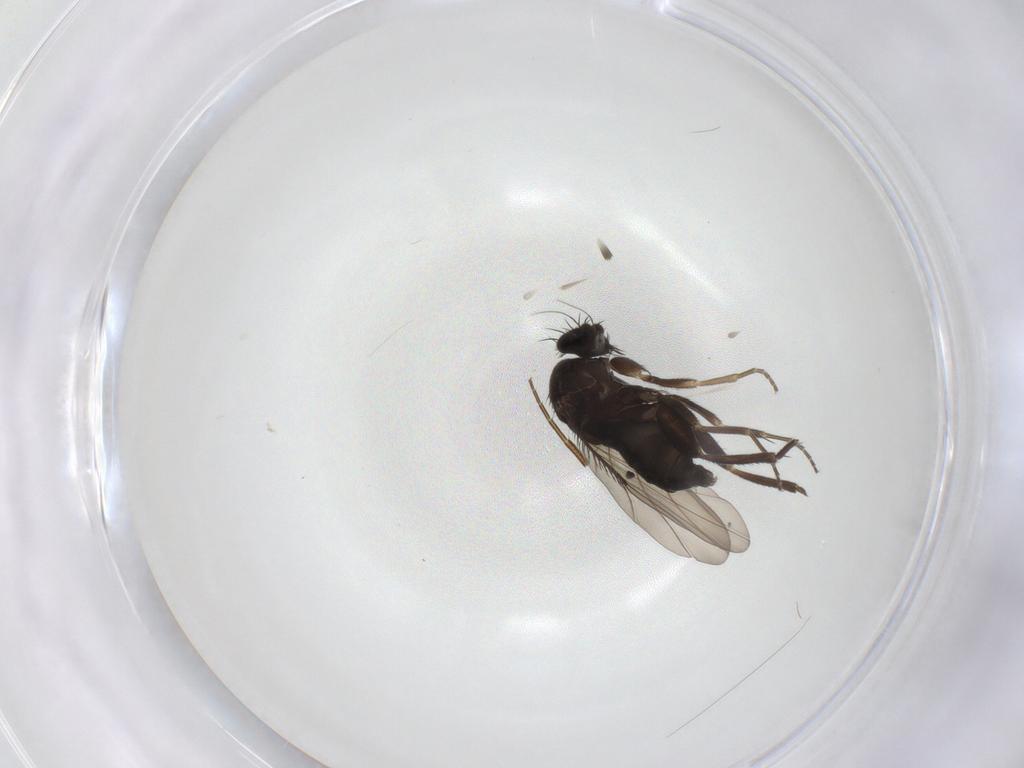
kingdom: Animalia
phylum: Arthropoda
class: Insecta
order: Diptera
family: Phoridae
